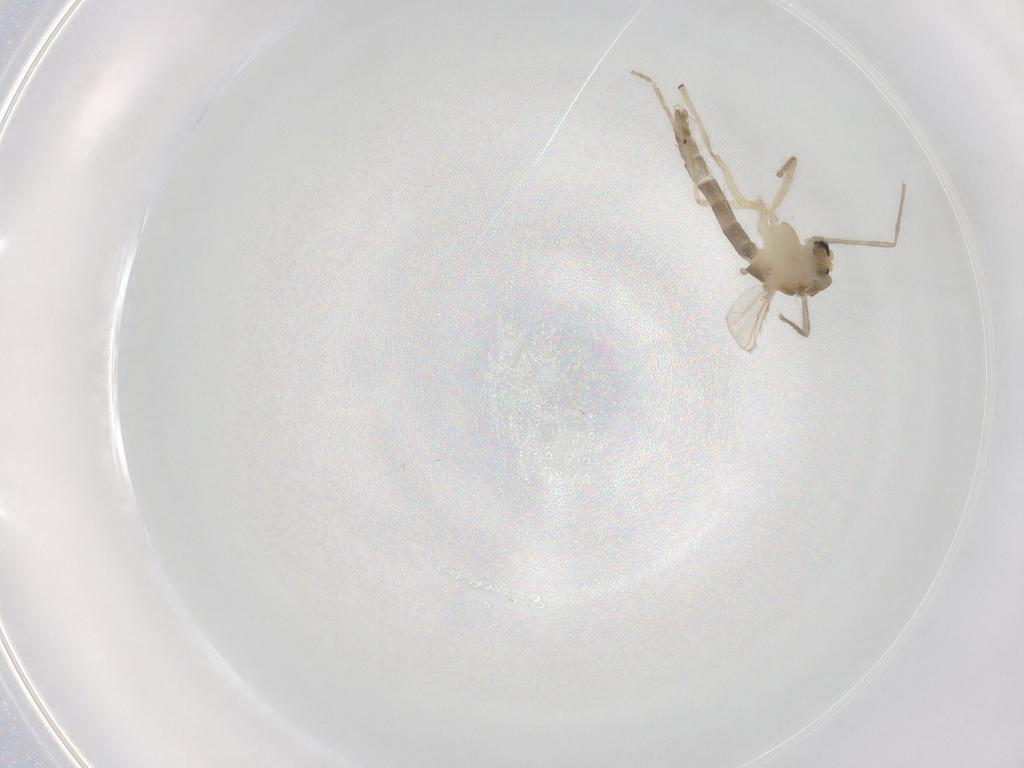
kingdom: Animalia
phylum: Arthropoda
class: Insecta
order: Diptera
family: Chironomidae
